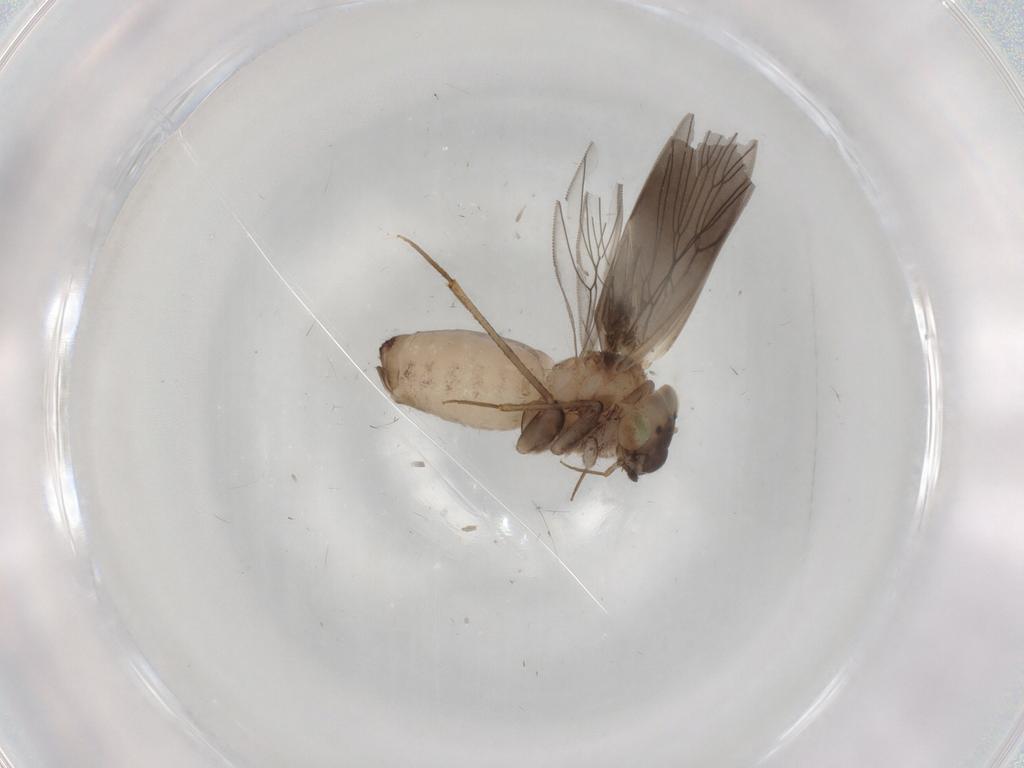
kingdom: Animalia
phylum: Arthropoda
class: Insecta
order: Psocodea
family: Lepidopsocidae
